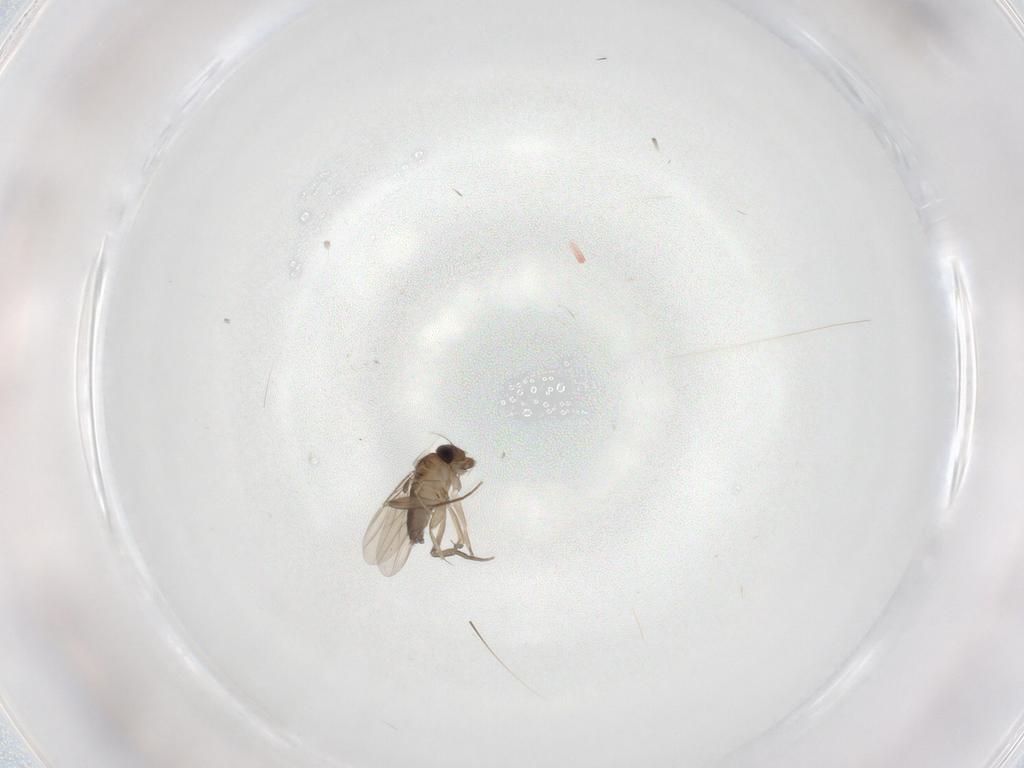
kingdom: Animalia
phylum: Arthropoda
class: Insecta
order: Diptera
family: Phoridae
